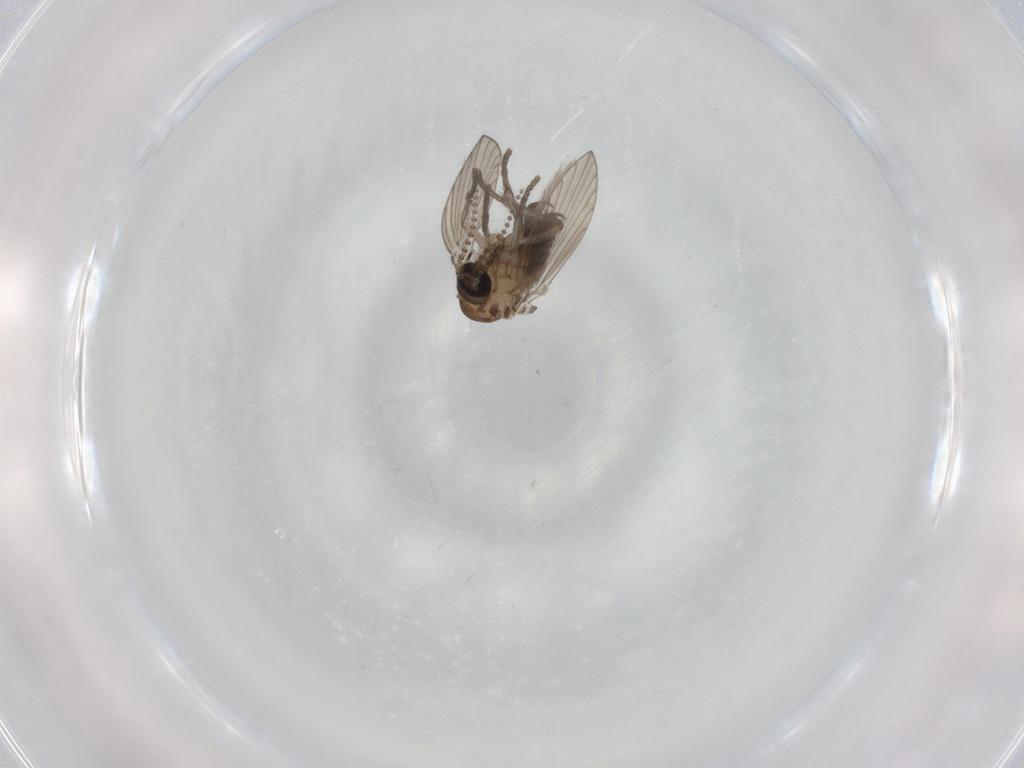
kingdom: Animalia
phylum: Arthropoda
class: Insecta
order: Diptera
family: Psychodidae
